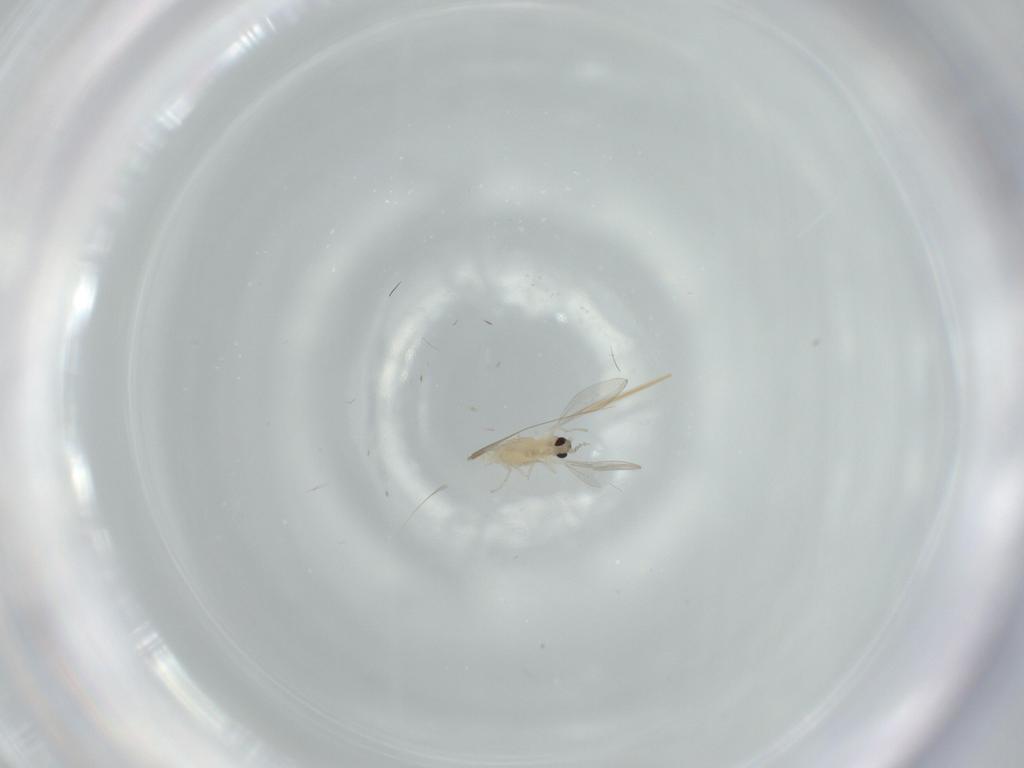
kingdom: Animalia
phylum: Arthropoda
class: Insecta
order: Diptera
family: Cecidomyiidae
